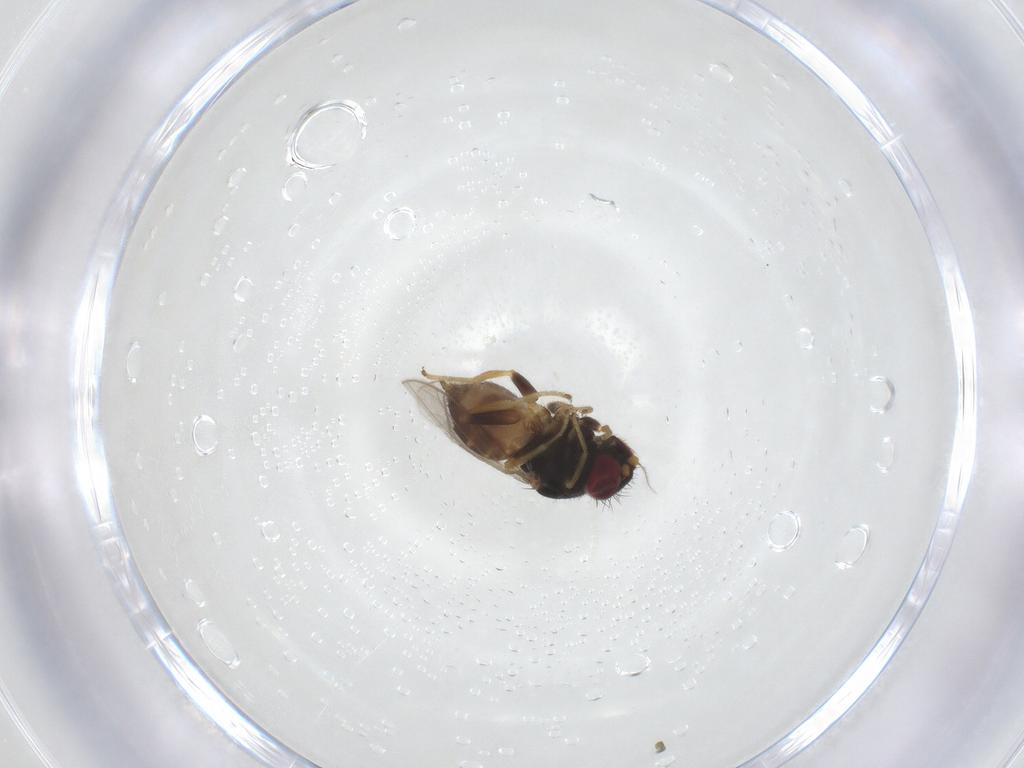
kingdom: Animalia
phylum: Arthropoda
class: Insecta
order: Diptera
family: Chloropidae
